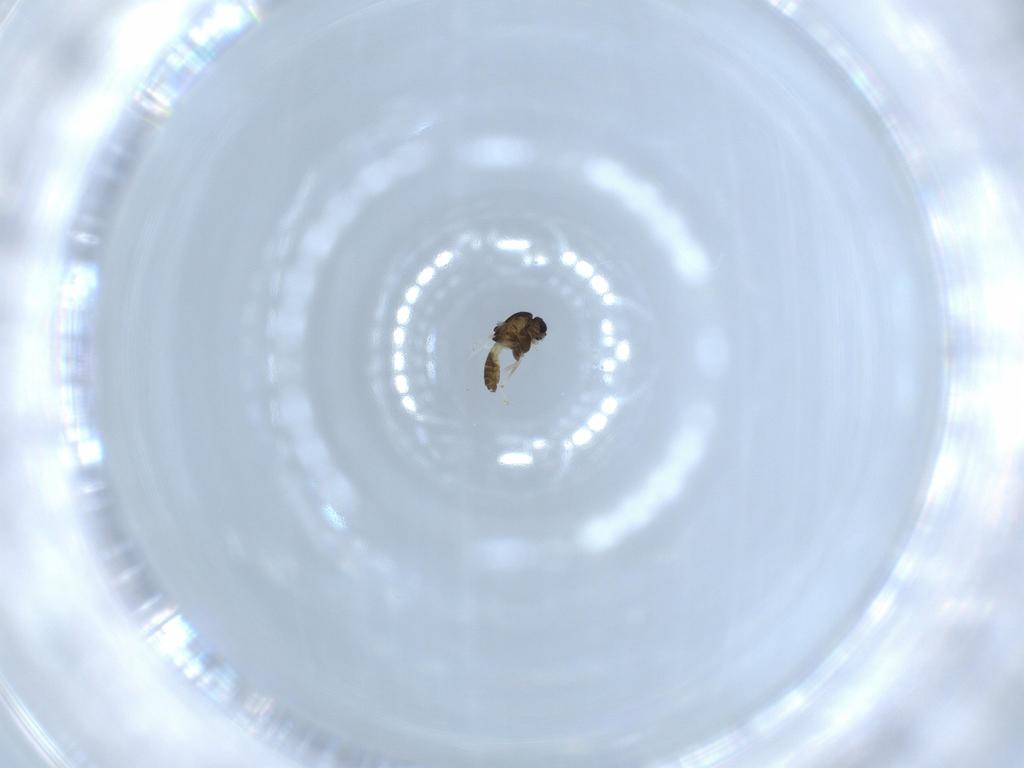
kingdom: Animalia
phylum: Arthropoda
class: Insecta
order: Diptera
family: Chironomidae
